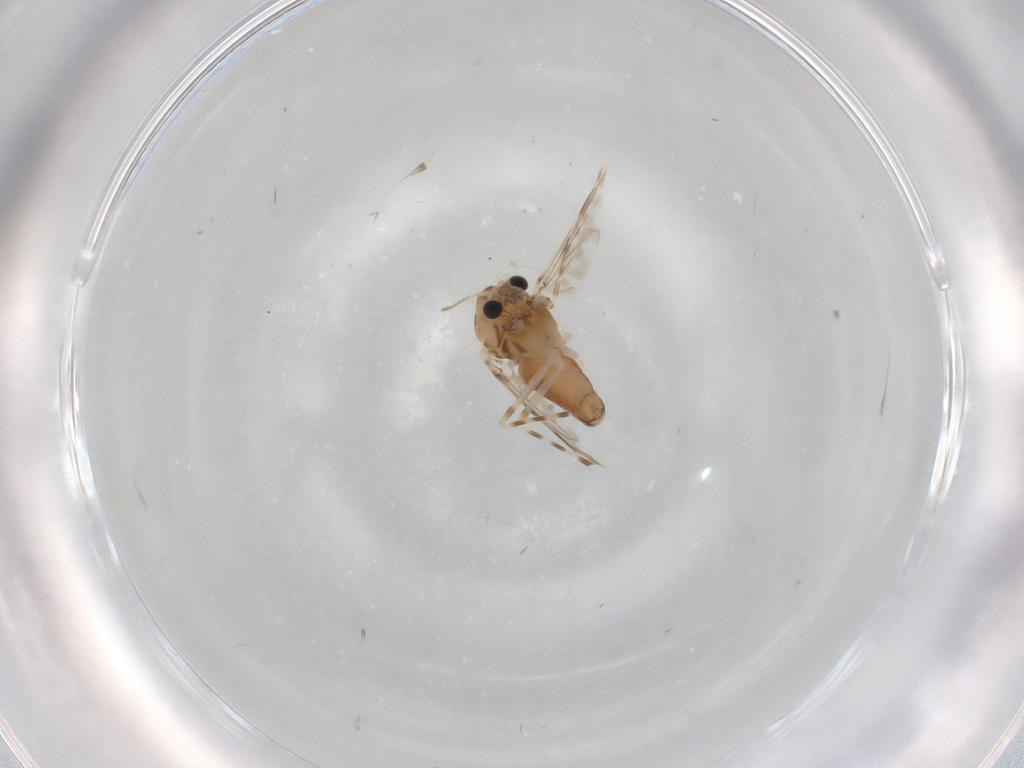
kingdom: Animalia
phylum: Arthropoda
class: Insecta
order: Diptera
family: Chironomidae
